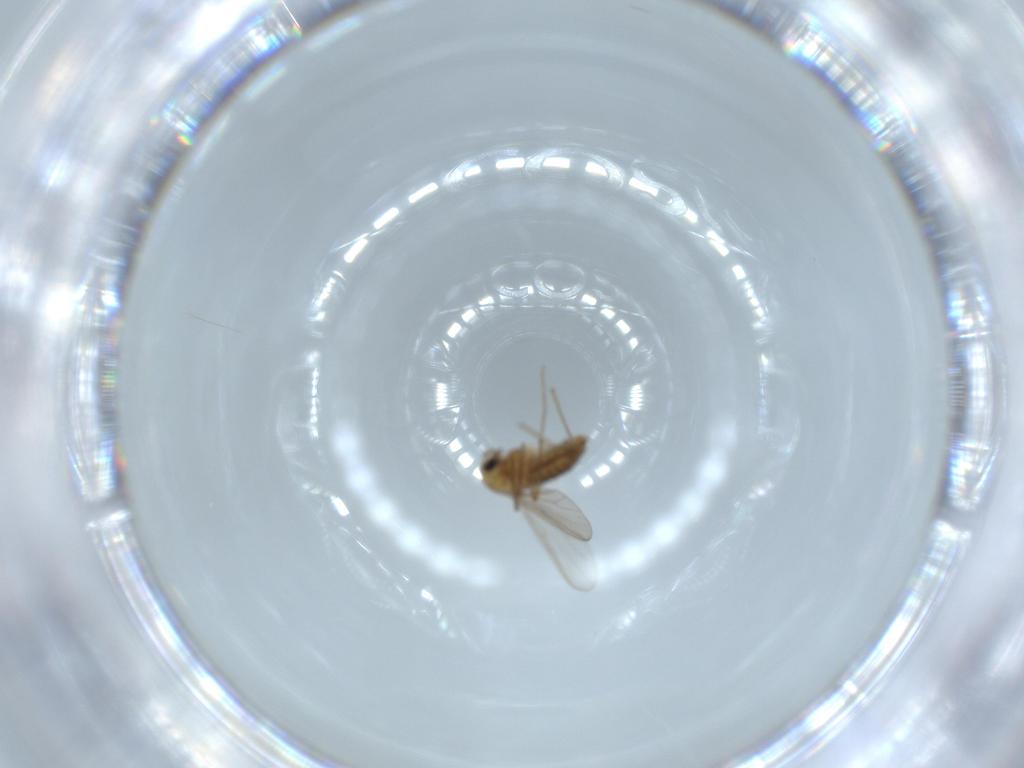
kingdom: Animalia
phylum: Arthropoda
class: Insecta
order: Diptera
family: Chironomidae
